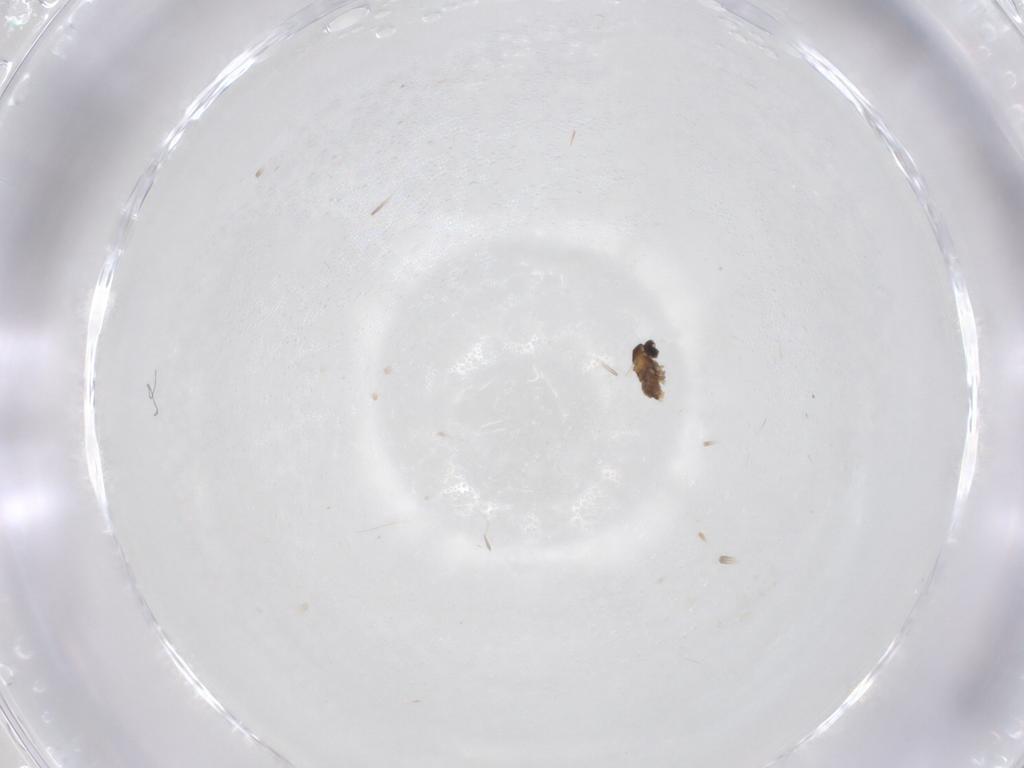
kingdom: Animalia
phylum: Arthropoda
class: Insecta
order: Diptera
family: Cecidomyiidae
